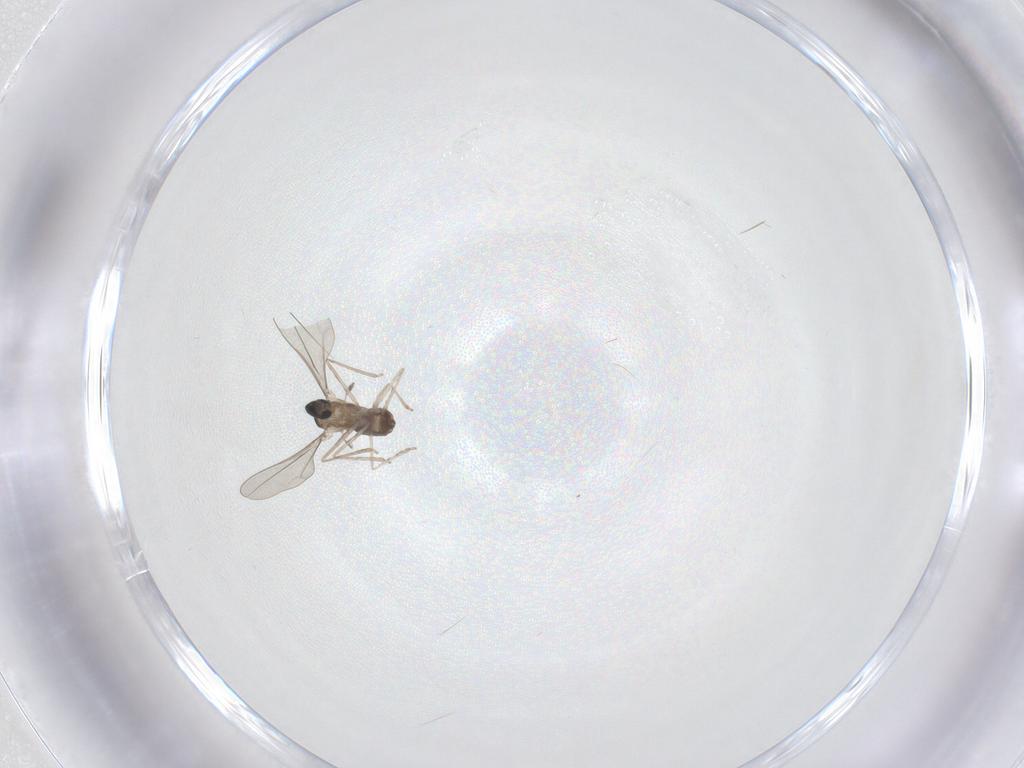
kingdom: Animalia
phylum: Arthropoda
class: Insecta
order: Diptera
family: Cecidomyiidae
